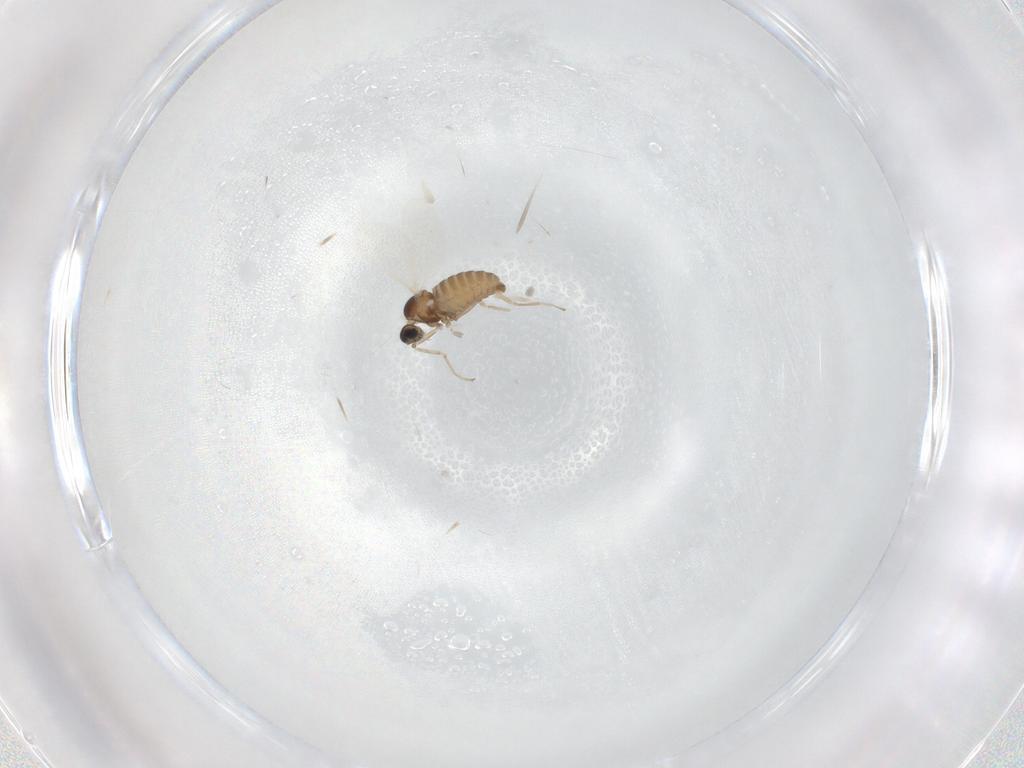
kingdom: Animalia
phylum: Arthropoda
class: Insecta
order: Diptera
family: Cecidomyiidae
